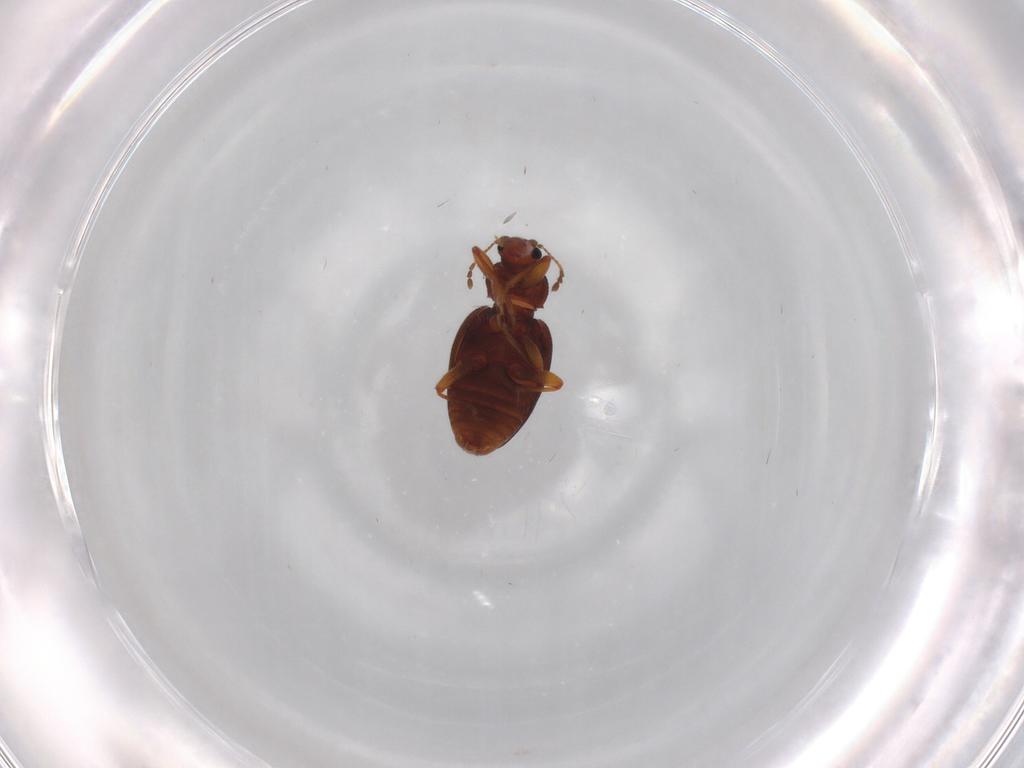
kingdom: Animalia
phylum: Arthropoda
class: Insecta
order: Coleoptera
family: Latridiidae
